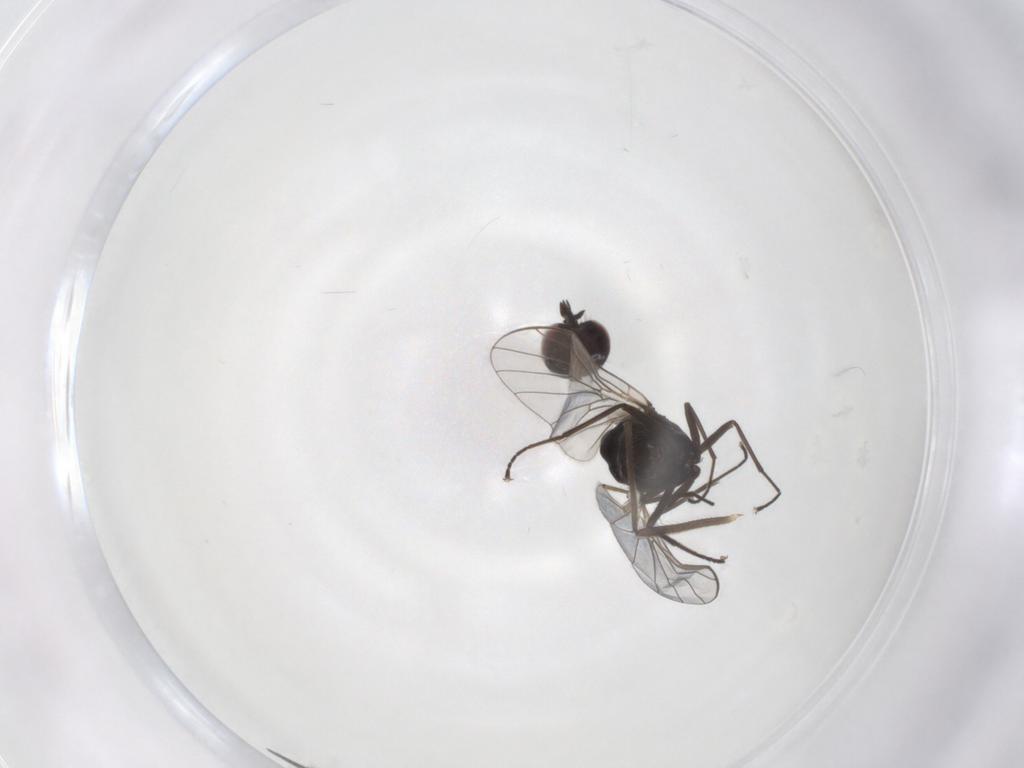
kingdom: Animalia
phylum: Arthropoda
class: Insecta
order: Diptera
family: Bombyliidae
